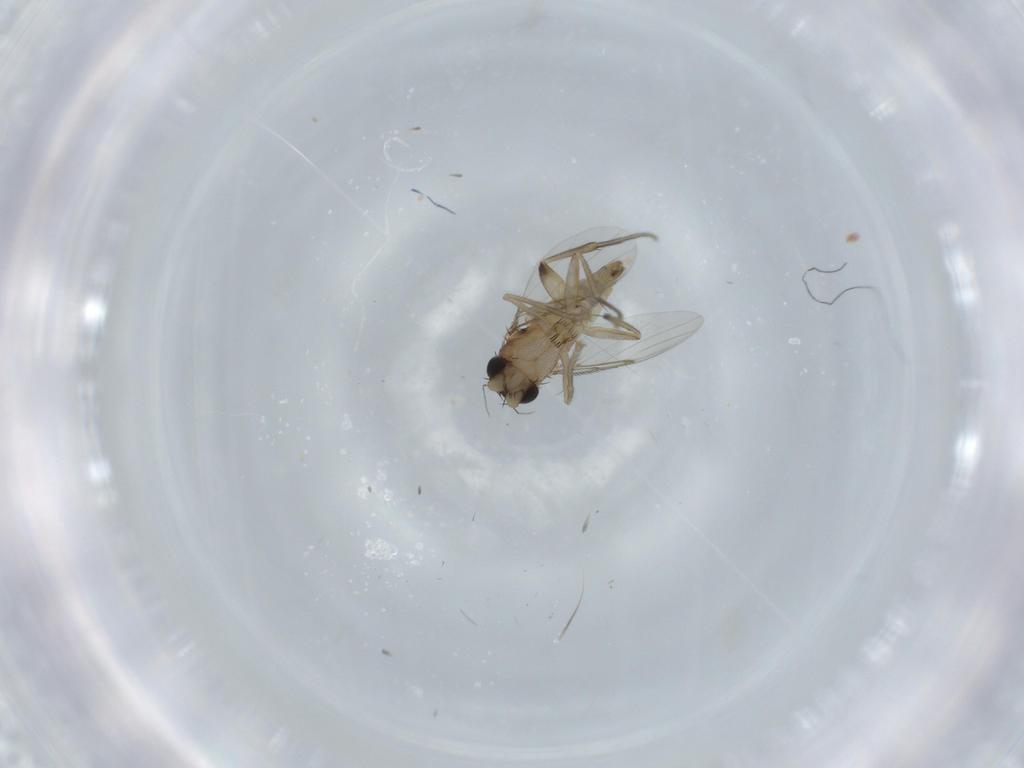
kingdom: Animalia
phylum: Arthropoda
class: Insecta
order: Diptera
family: Phoridae
